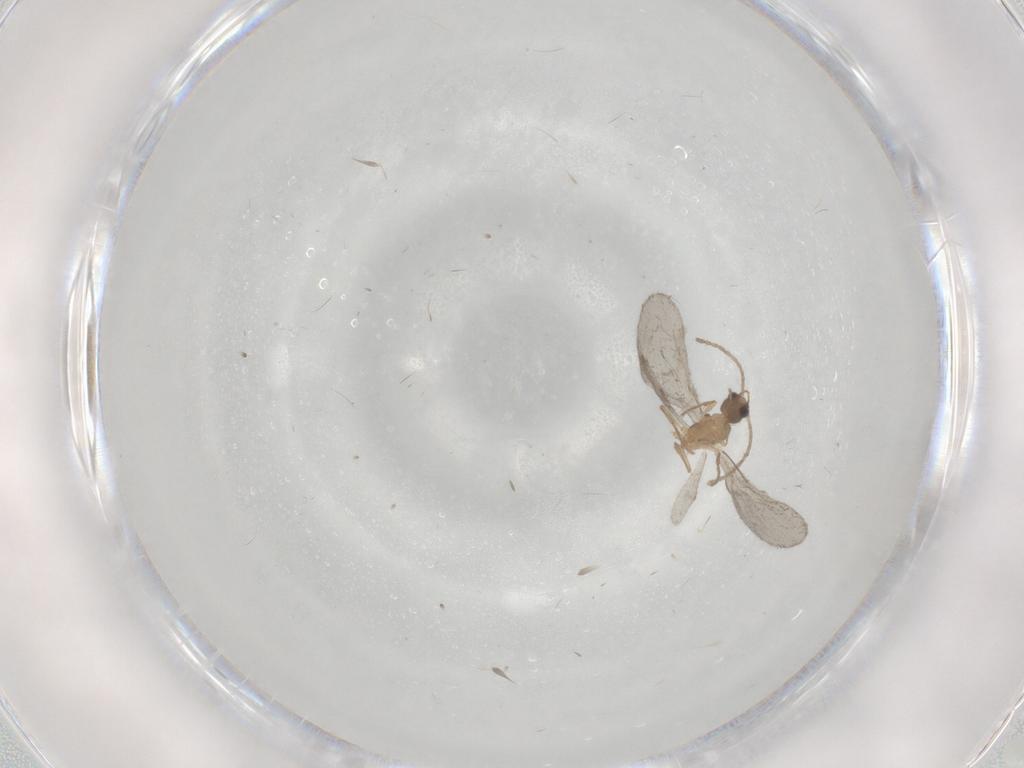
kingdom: Animalia
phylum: Arthropoda
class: Insecta
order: Hymenoptera
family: Formicidae
